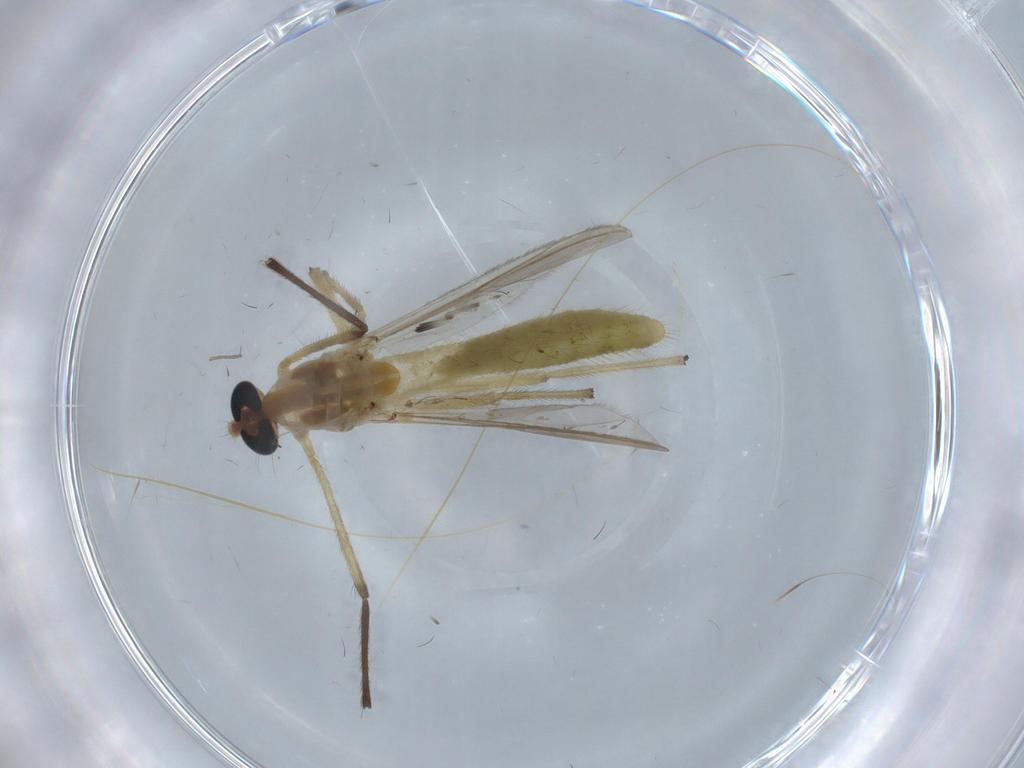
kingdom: Animalia
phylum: Arthropoda
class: Insecta
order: Diptera
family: Chironomidae
